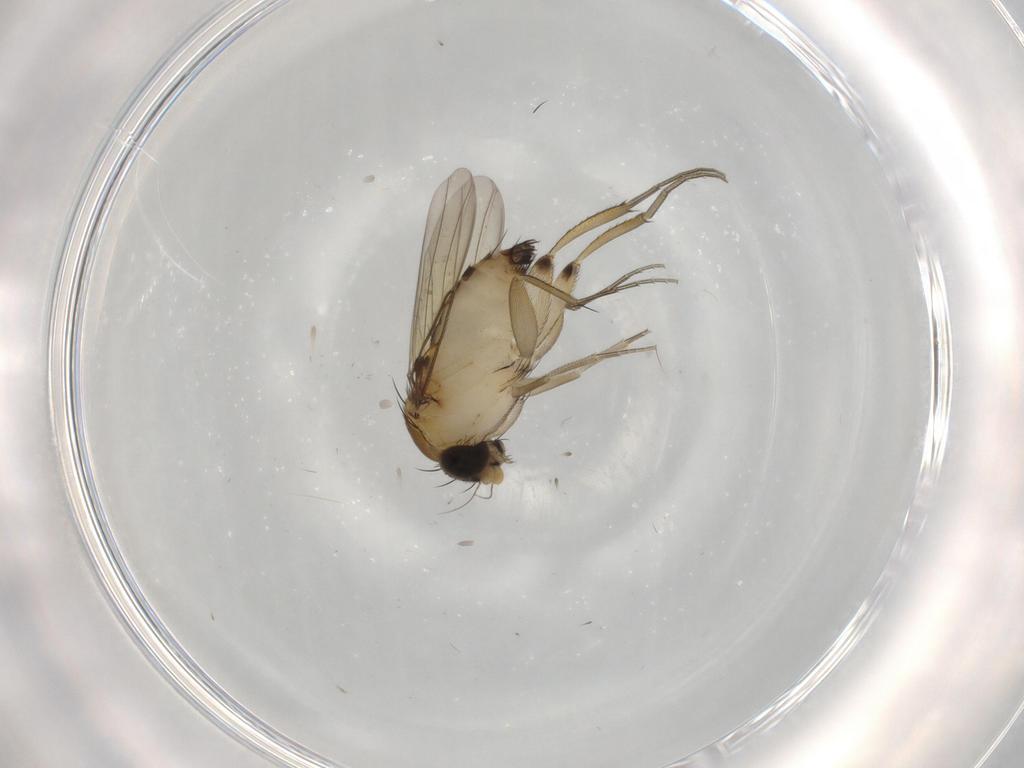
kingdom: Animalia
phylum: Arthropoda
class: Insecta
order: Diptera
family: Phoridae
